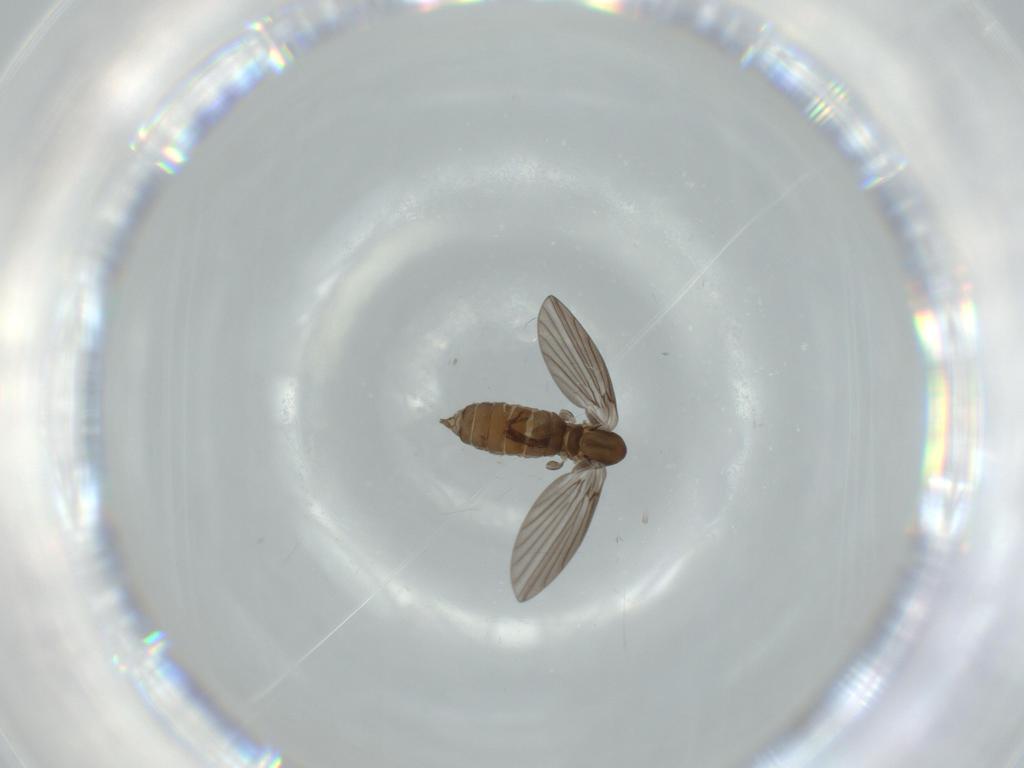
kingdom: Animalia
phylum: Arthropoda
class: Insecta
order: Diptera
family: Psychodidae
